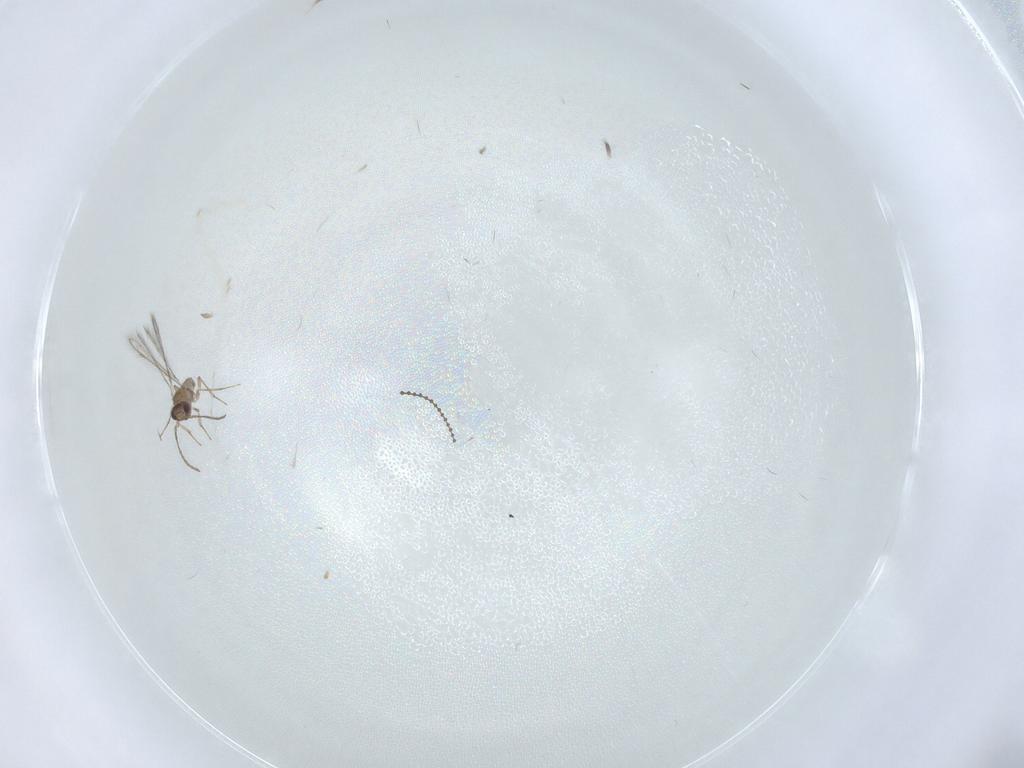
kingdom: Animalia
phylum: Arthropoda
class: Insecta
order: Hymenoptera
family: Mymaridae
